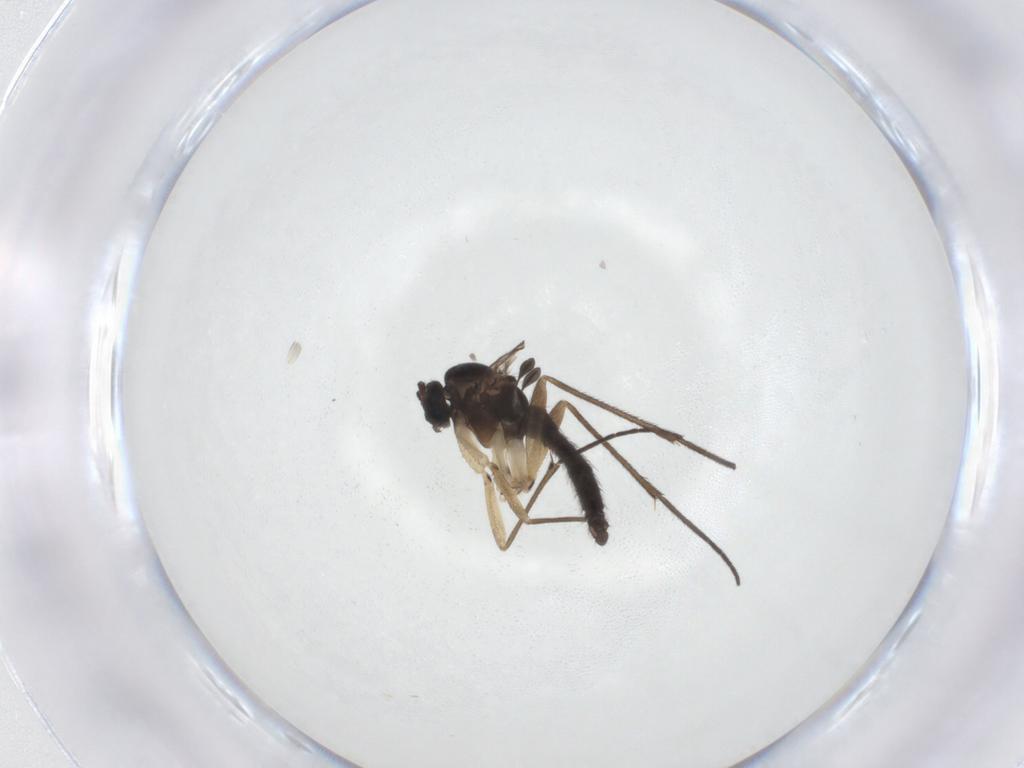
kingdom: Animalia
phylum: Arthropoda
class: Insecta
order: Diptera
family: Sciaridae
